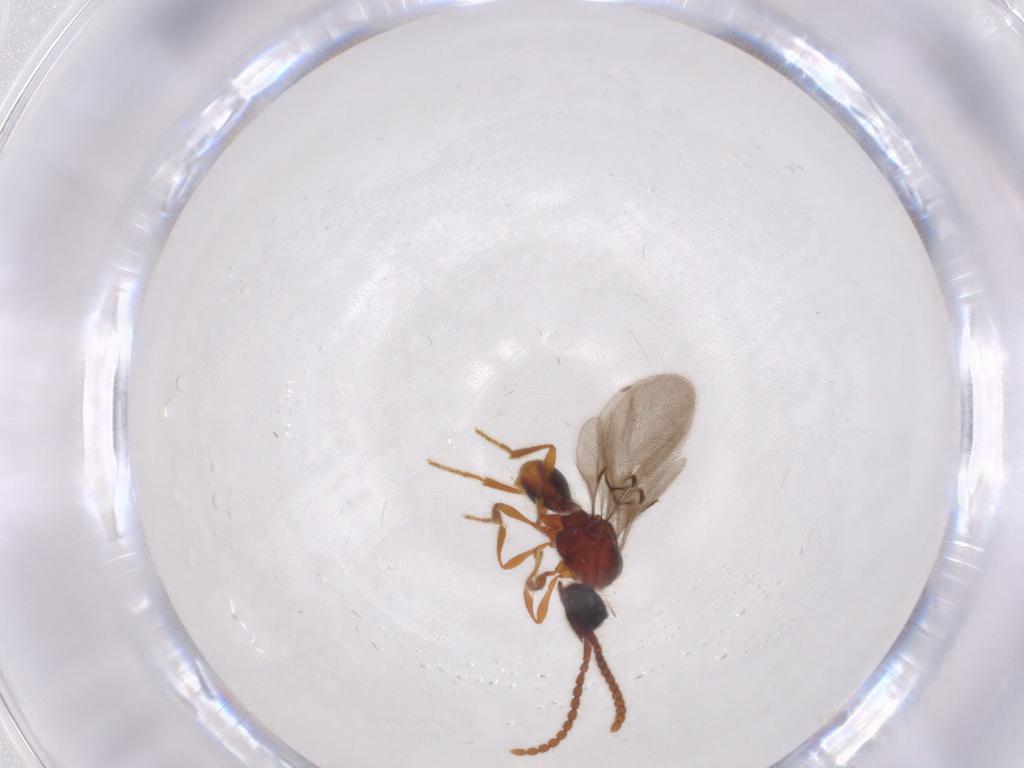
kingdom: Animalia
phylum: Arthropoda
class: Insecta
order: Hymenoptera
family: Diapriidae
